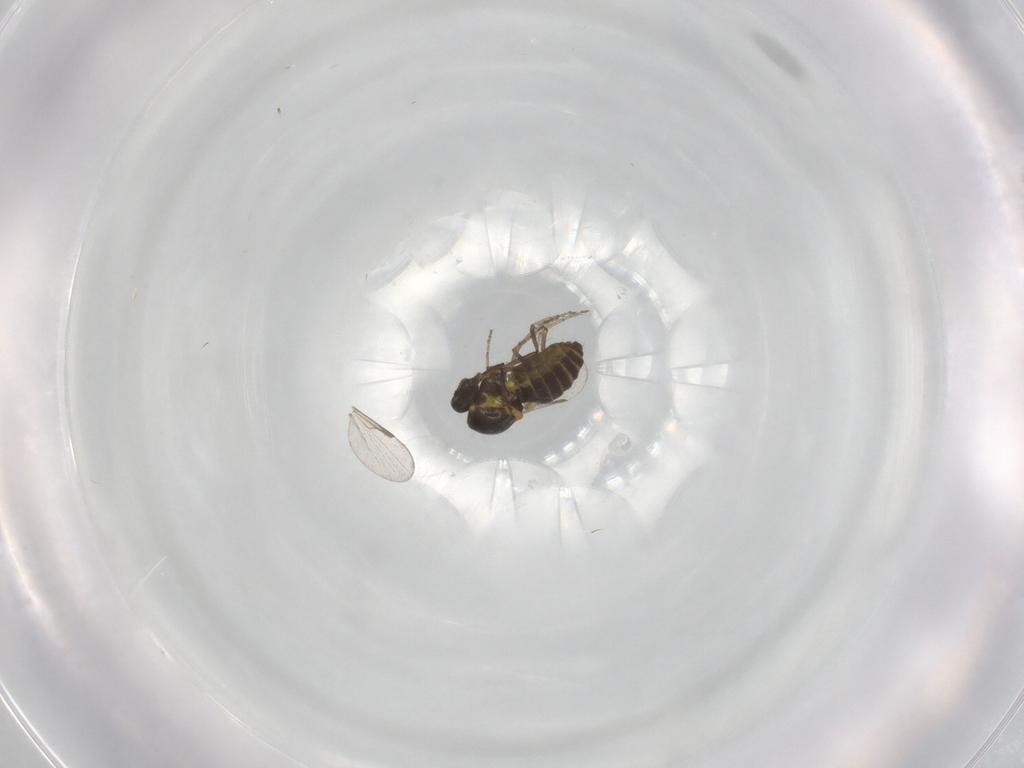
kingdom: Animalia
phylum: Arthropoda
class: Insecta
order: Diptera
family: Ceratopogonidae
